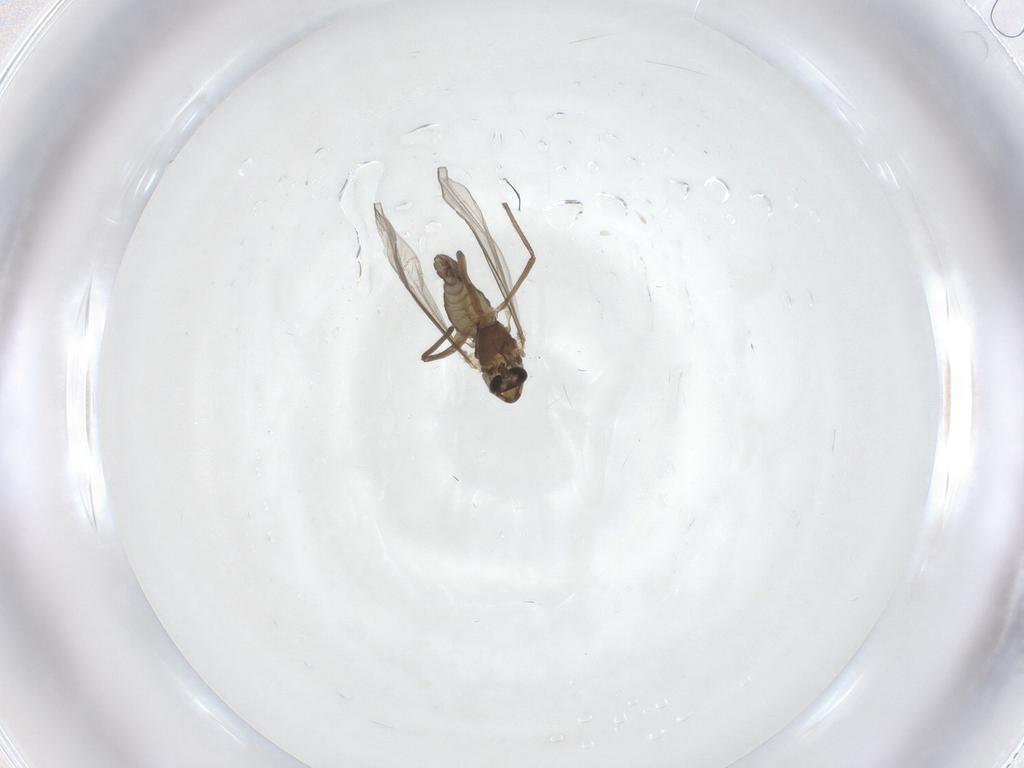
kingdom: Animalia
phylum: Arthropoda
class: Insecta
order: Diptera
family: Chironomidae
